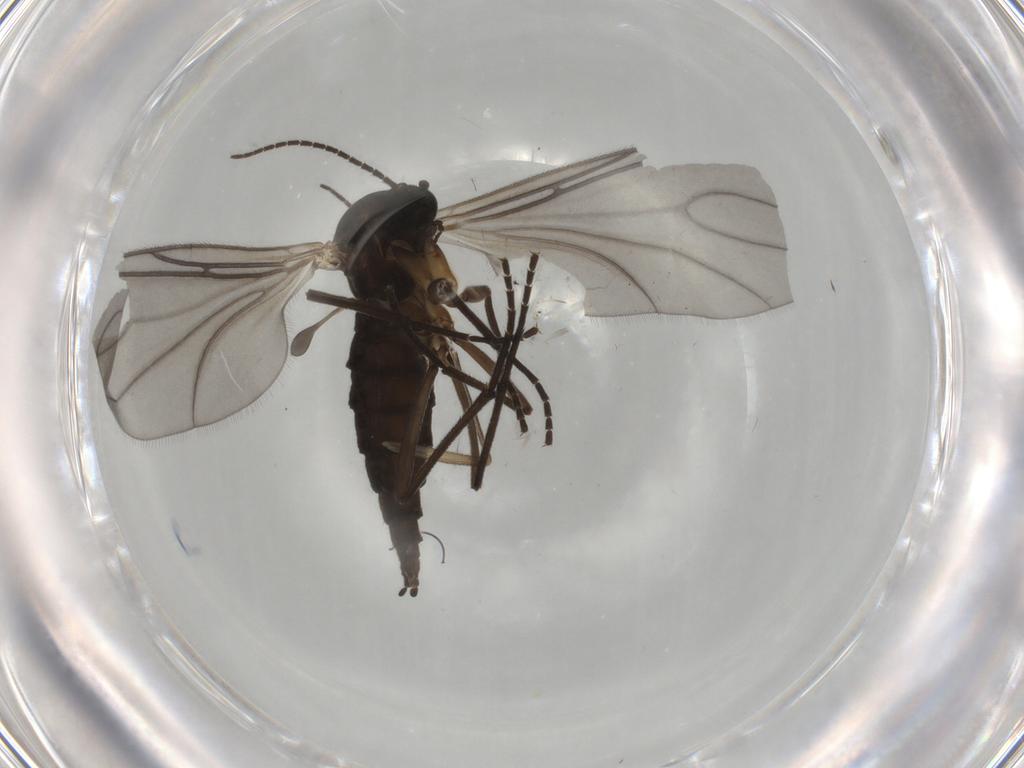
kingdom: Animalia
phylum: Arthropoda
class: Insecta
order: Diptera
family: Sciaridae
